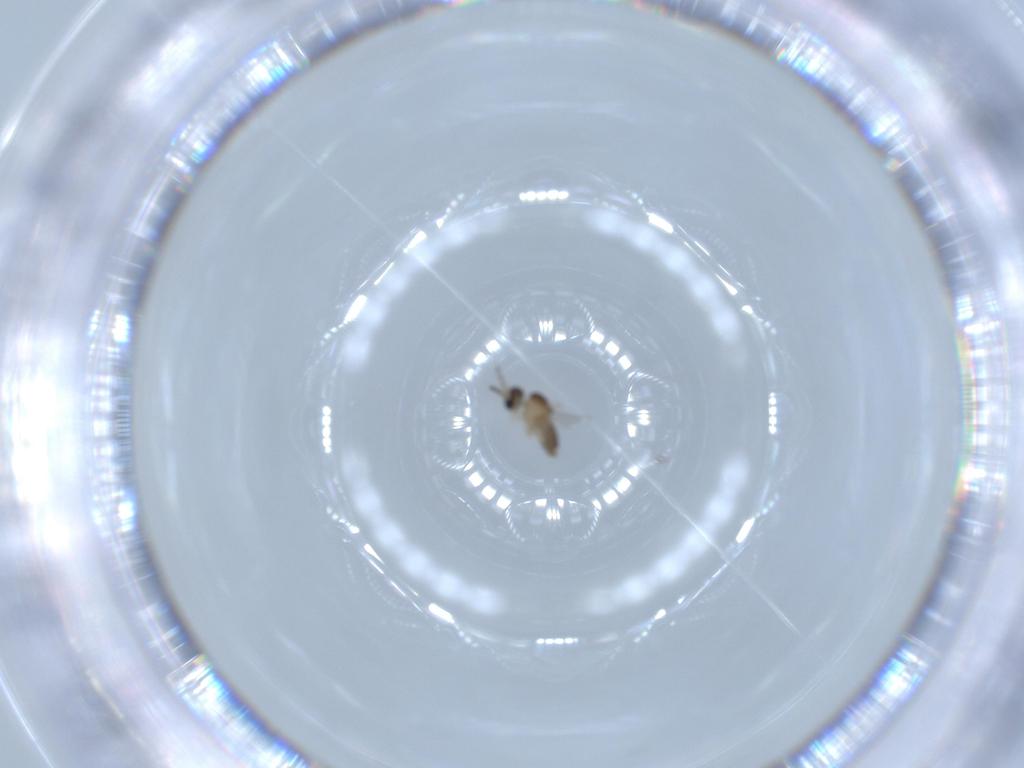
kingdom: Animalia
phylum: Arthropoda
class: Insecta
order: Diptera
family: Cecidomyiidae
